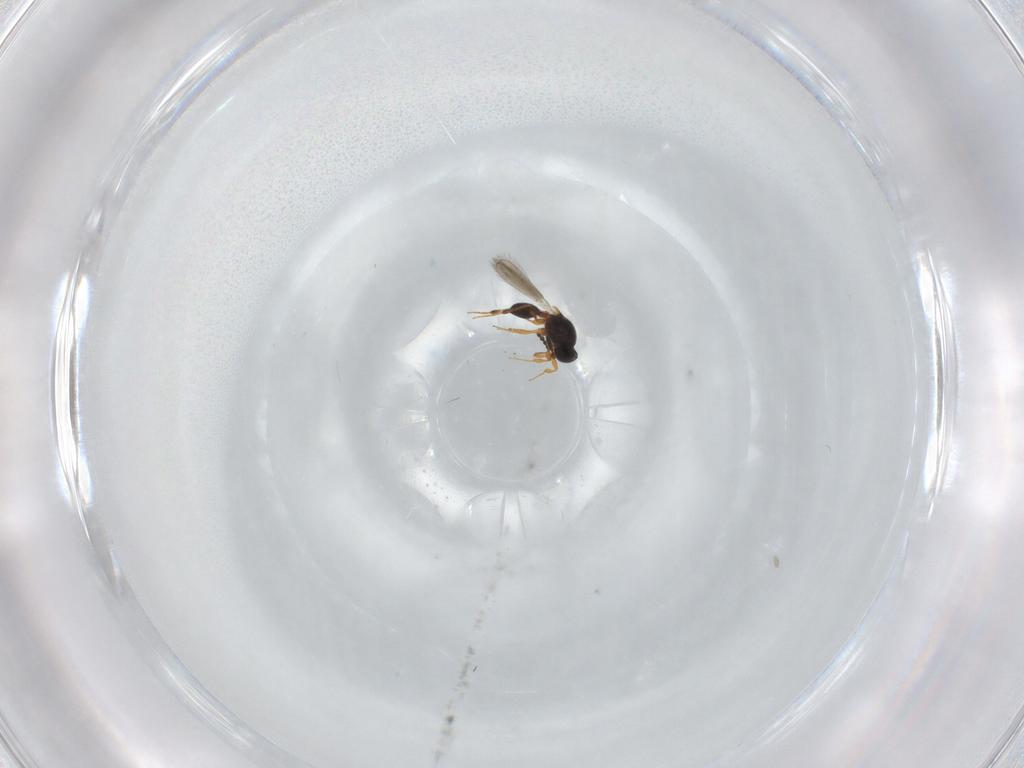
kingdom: Animalia
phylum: Arthropoda
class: Insecta
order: Hymenoptera
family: Platygastridae
